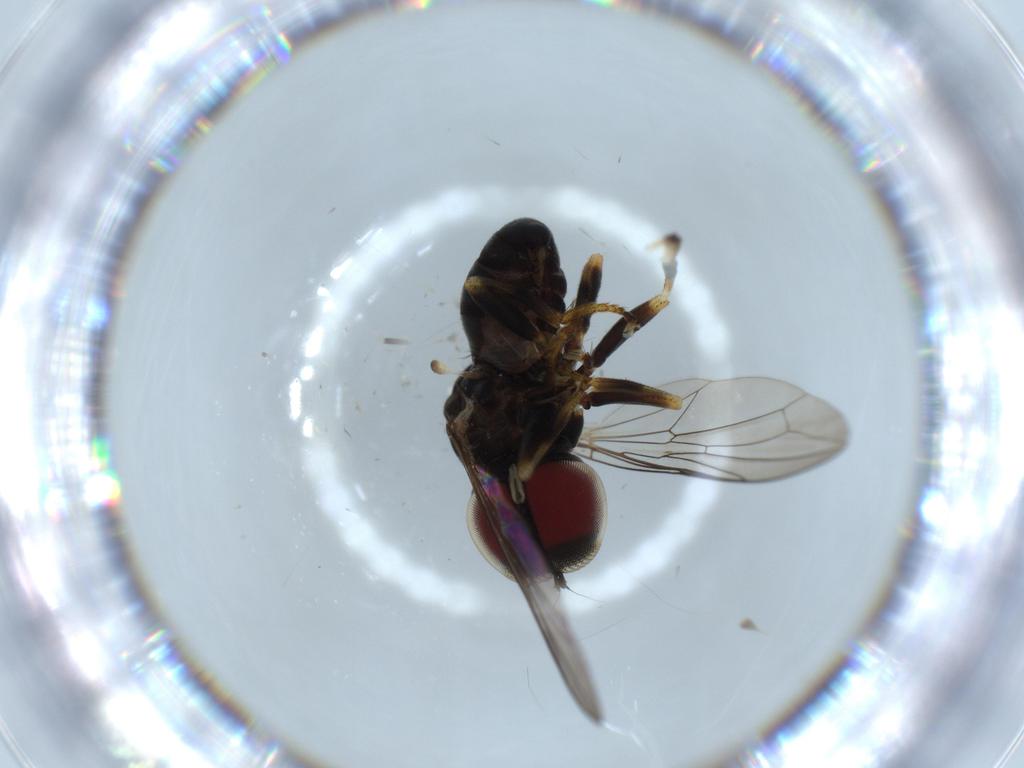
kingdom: Animalia
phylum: Arthropoda
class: Insecta
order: Diptera
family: Pipunculidae
